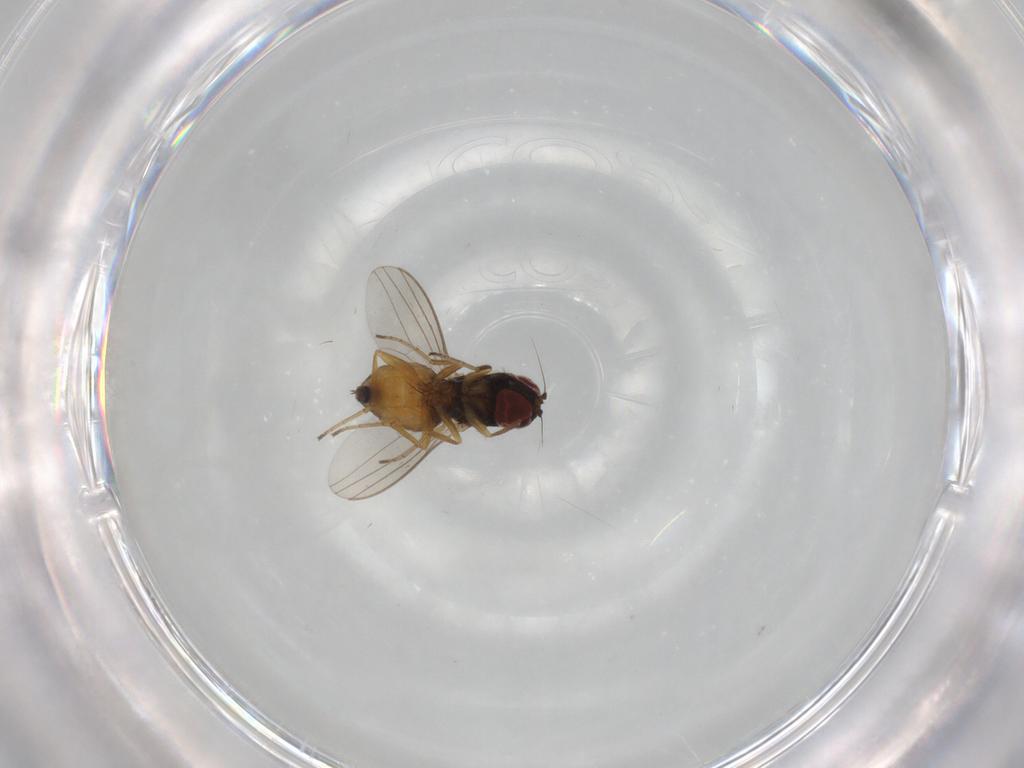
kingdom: Animalia
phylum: Arthropoda
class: Insecta
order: Diptera
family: Dolichopodidae
